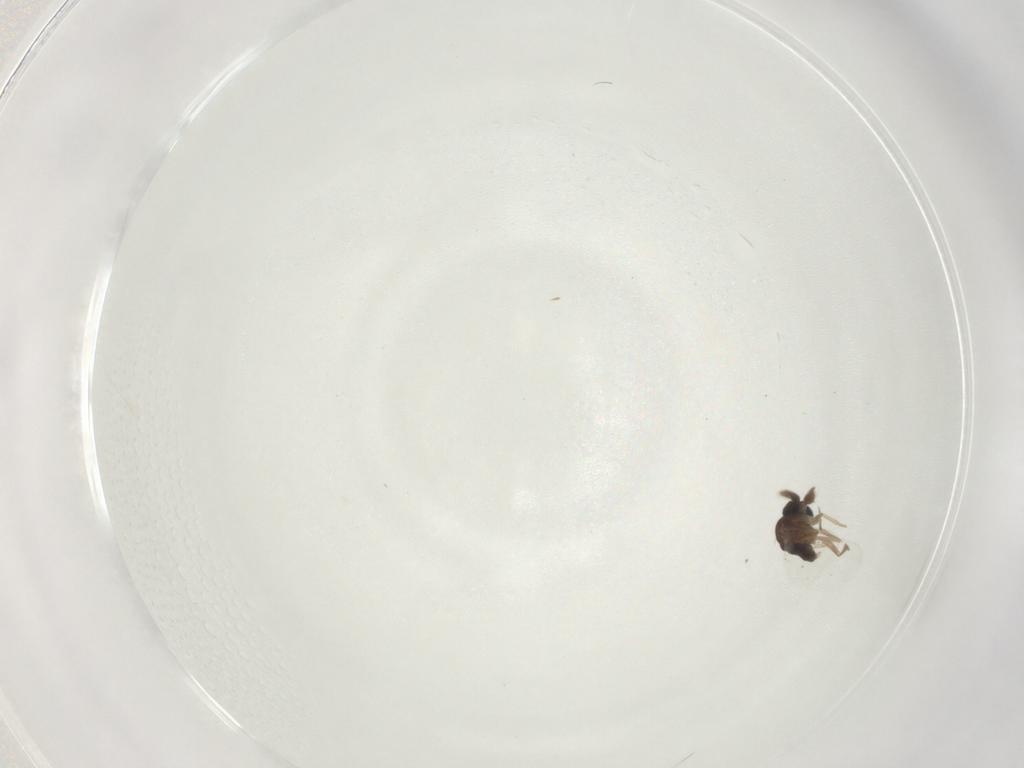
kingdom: Animalia
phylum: Arthropoda
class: Insecta
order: Diptera
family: Phoridae
